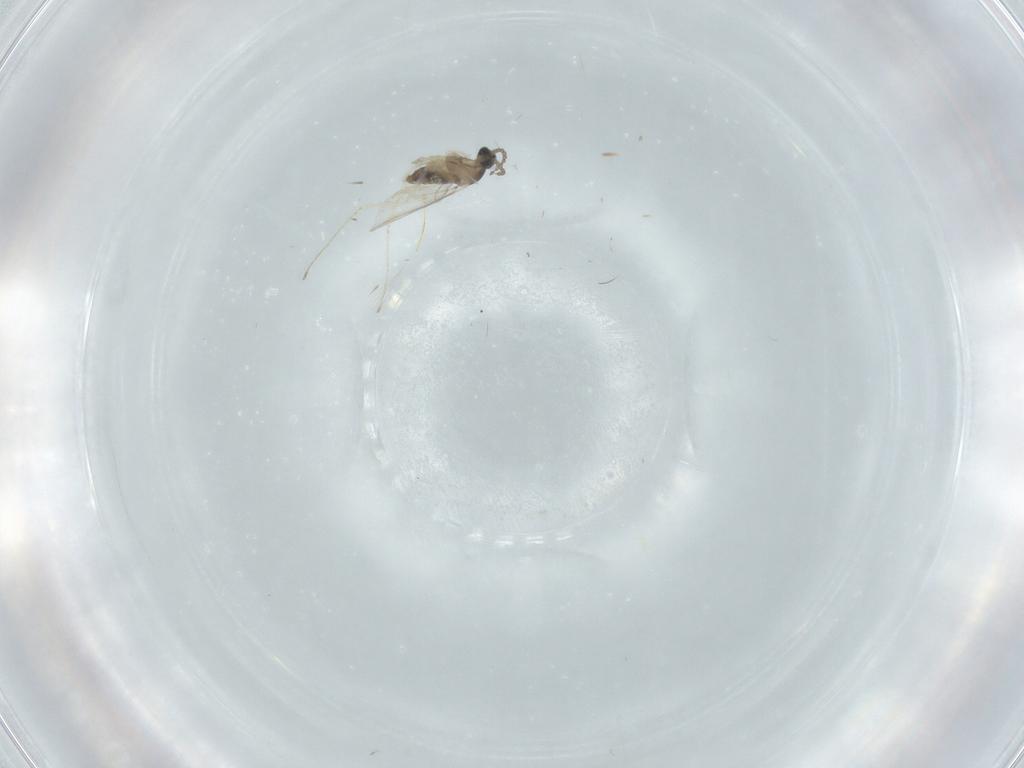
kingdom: Animalia
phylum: Arthropoda
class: Insecta
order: Diptera
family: Cecidomyiidae
